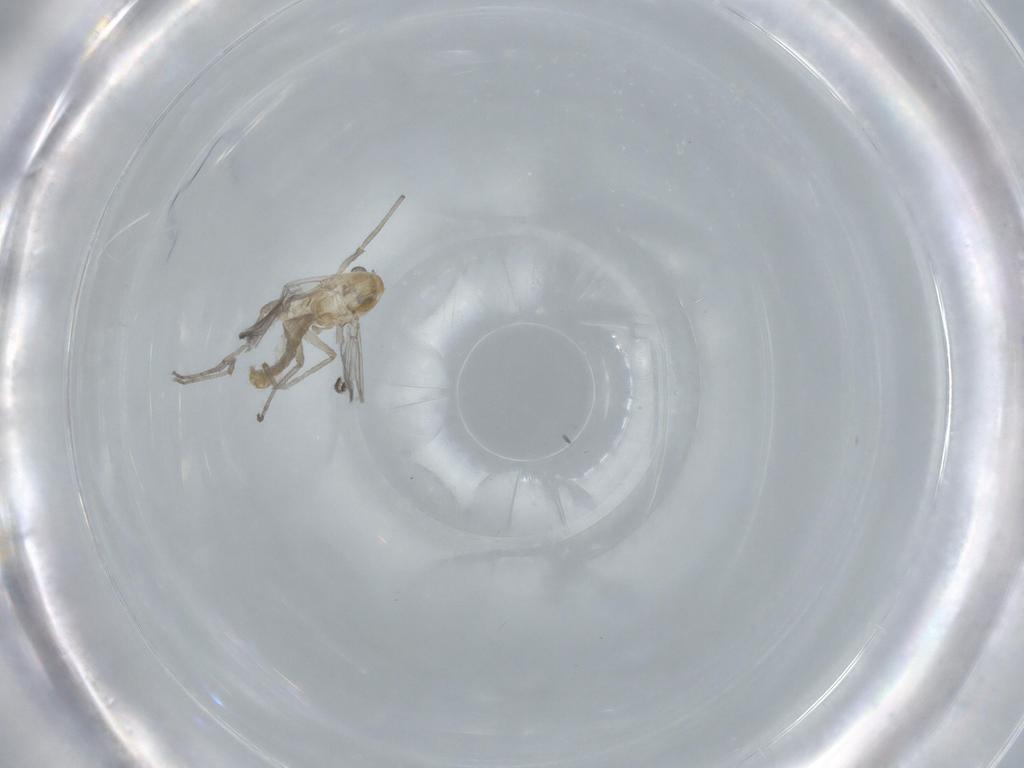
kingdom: Animalia
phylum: Arthropoda
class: Insecta
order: Diptera
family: Chironomidae
